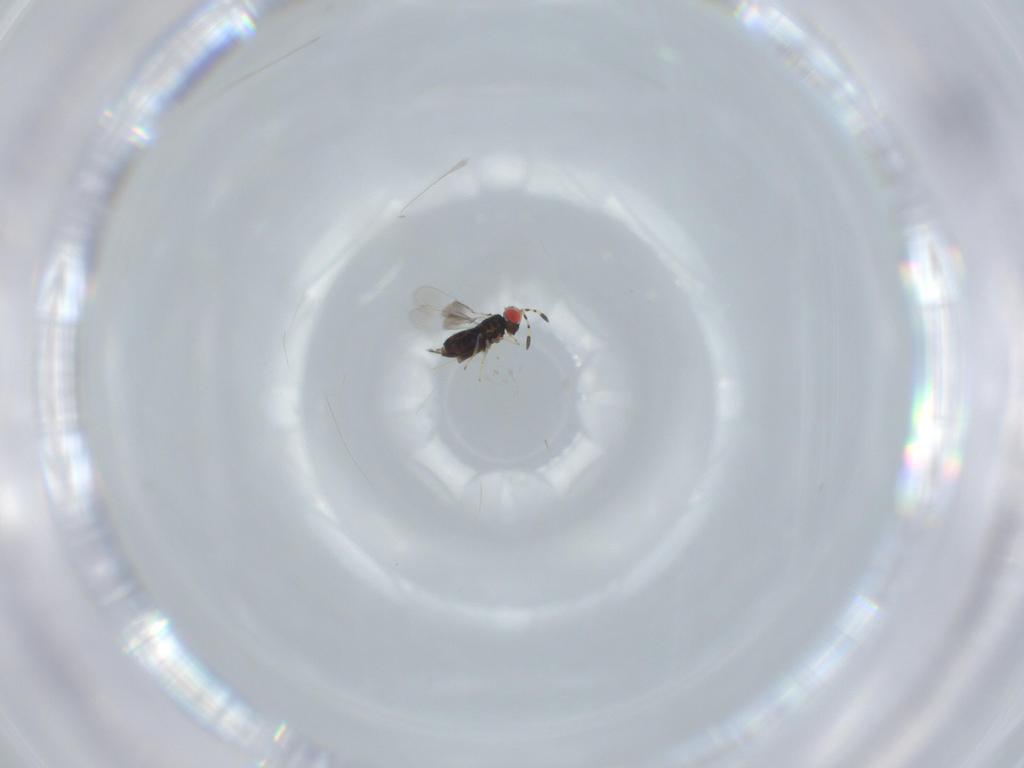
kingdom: Animalia
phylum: Arthropoda
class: Insecta
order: Hymenoptera
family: Azotidae
